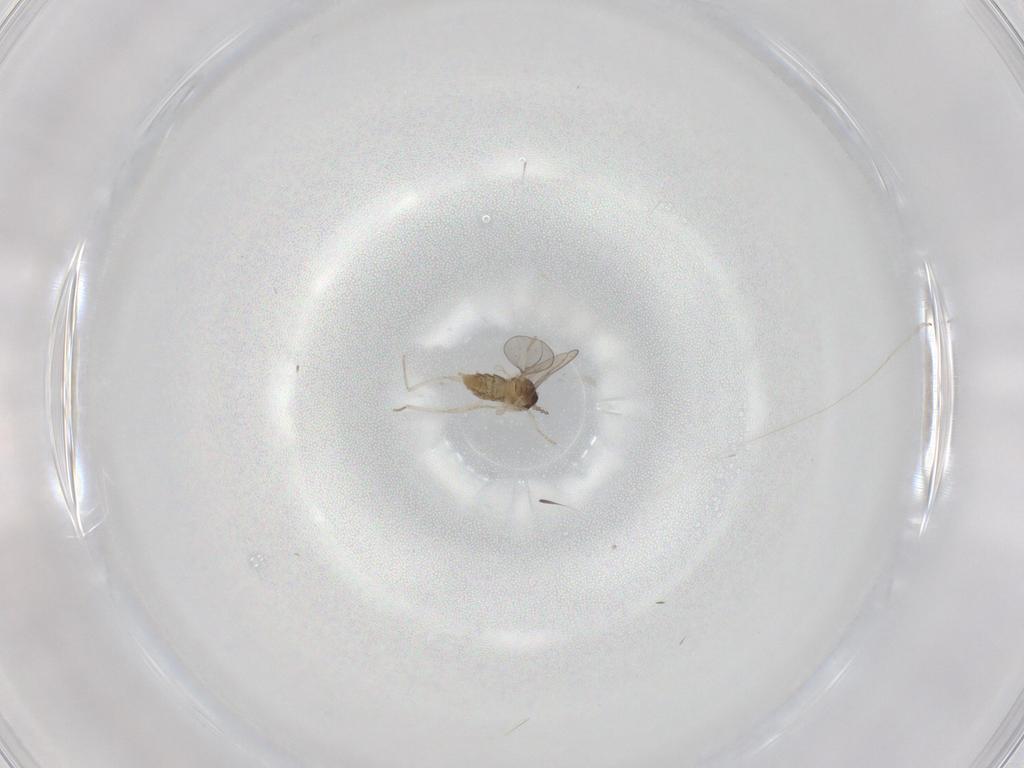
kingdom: Animalia
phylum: Arthropoda
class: Insecta
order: Diptera
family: Cecidomyiidae
